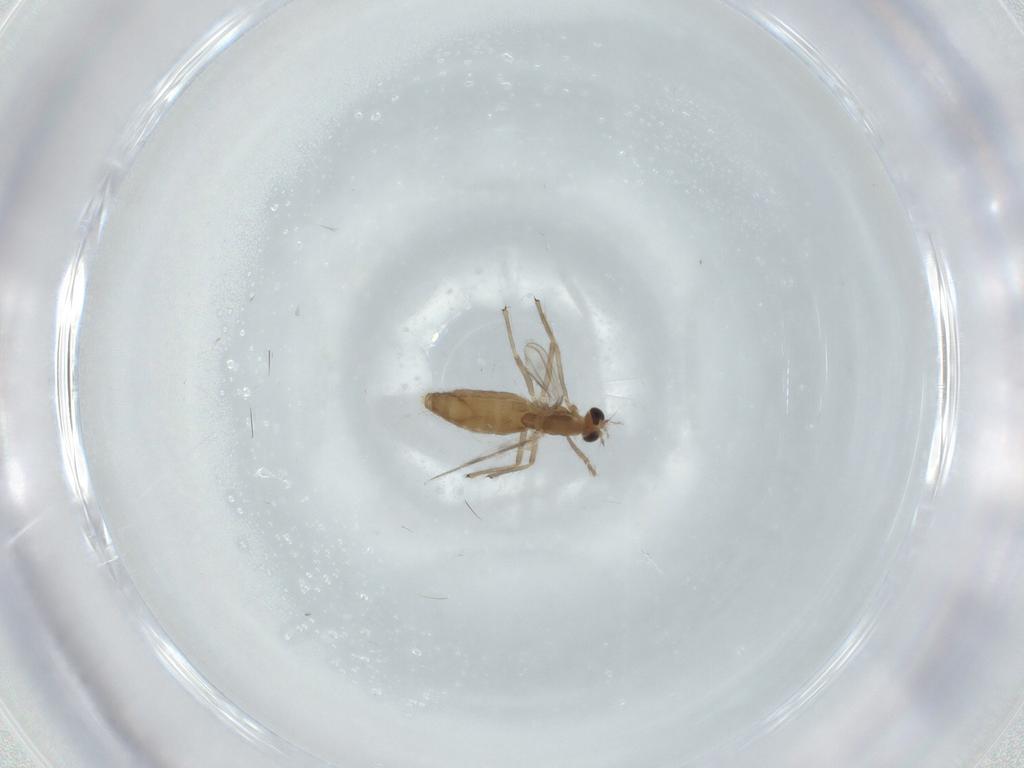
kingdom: Animalia
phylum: Arthropoda
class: Insecta
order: Diptera
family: Chironomidae
